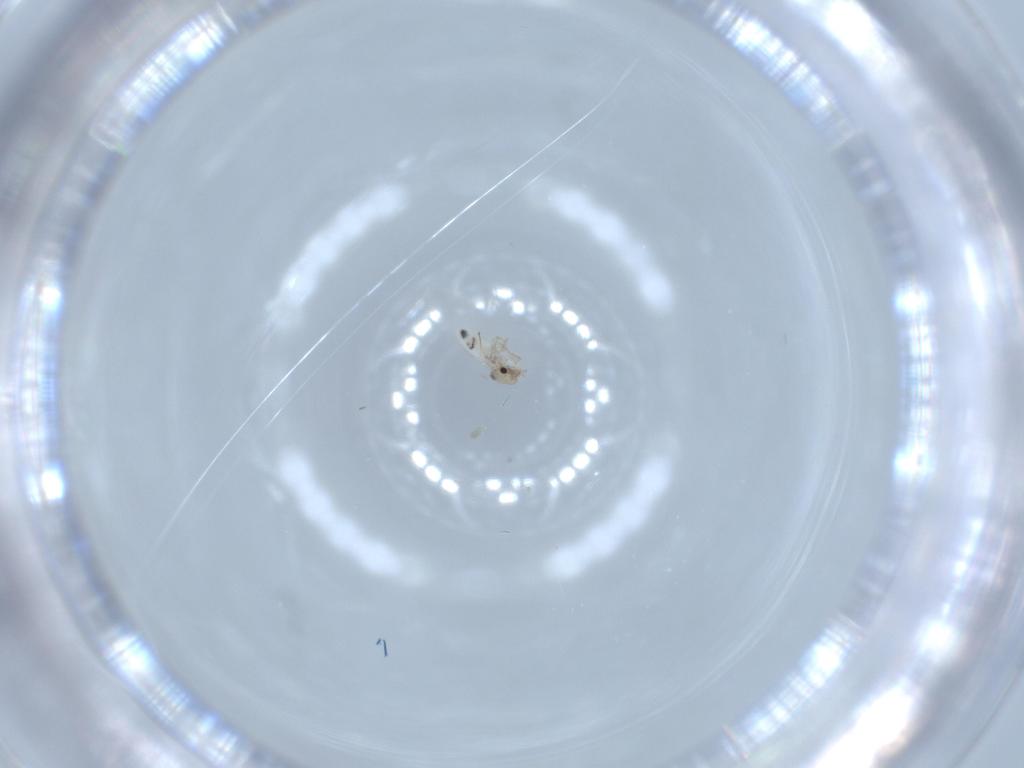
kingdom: Animalia
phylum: Arthropoda
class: Insecta
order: Psocodea
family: Lepidopsocidae
